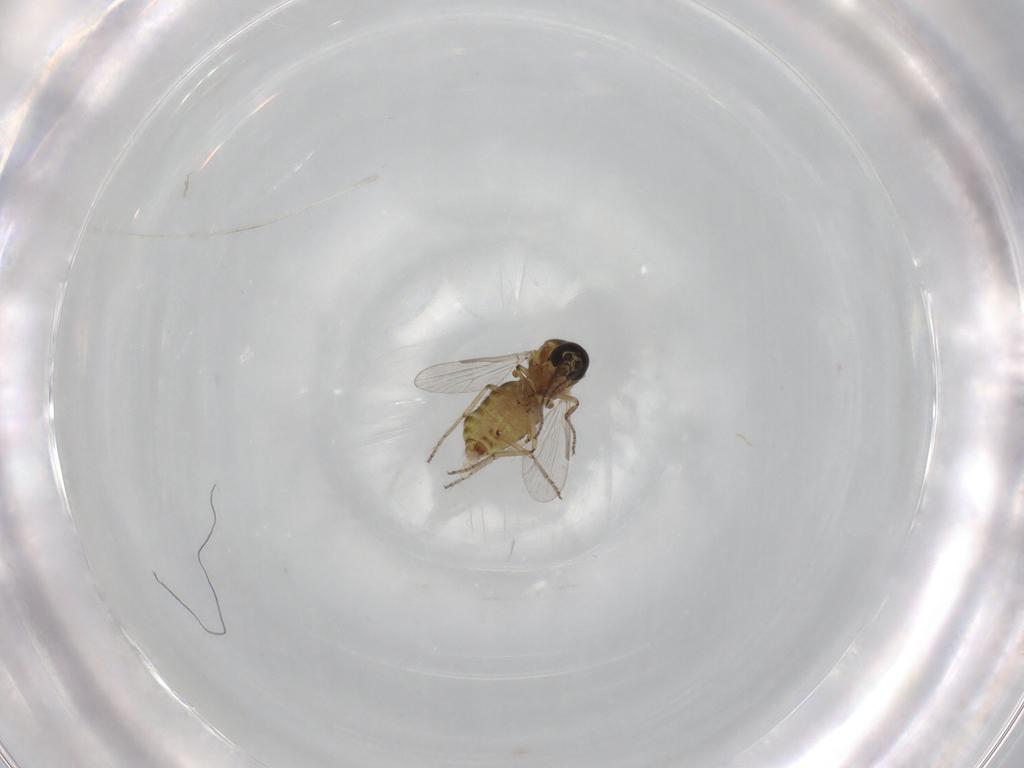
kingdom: Animalia
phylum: Arthropoda
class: Insecta
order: Diptera
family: Ceratopogonidae
